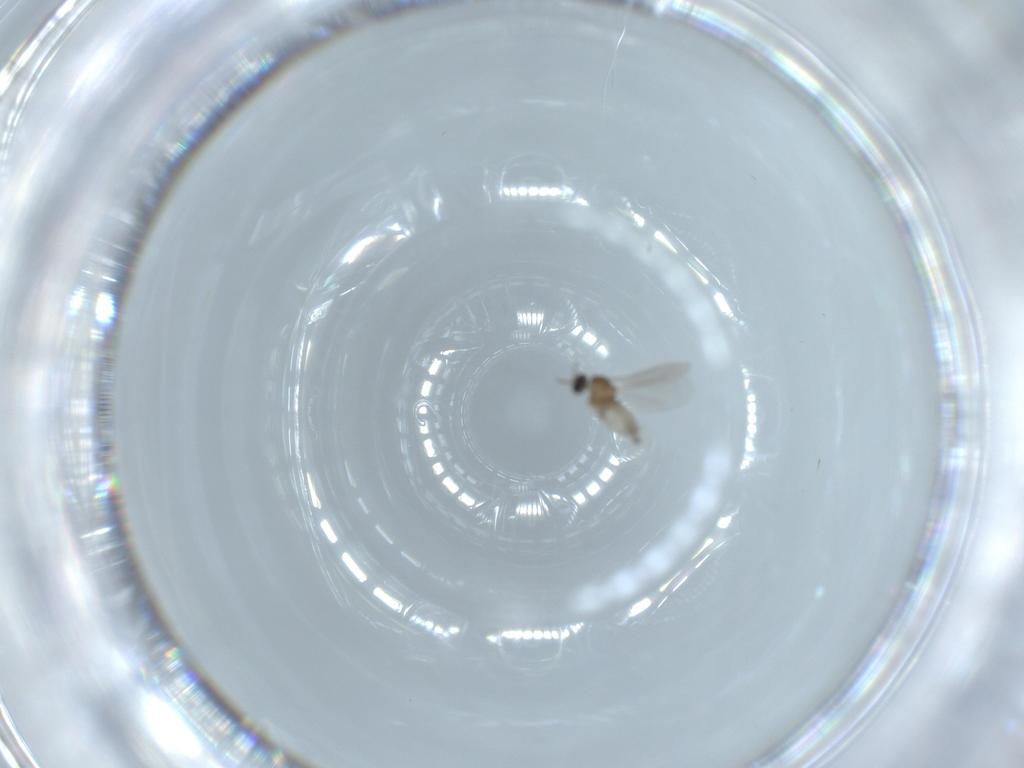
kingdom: Animalia
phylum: Arthropoda
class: Insecta
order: Diptera
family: Cecidomyiidae
